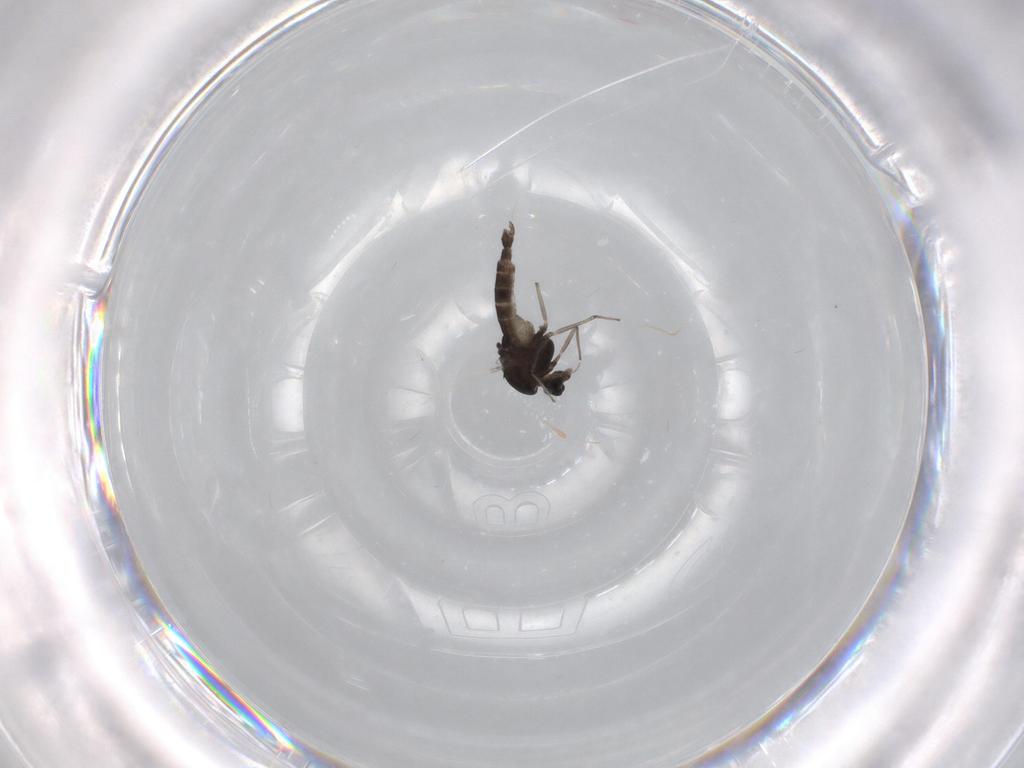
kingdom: Animalia
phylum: Arthropoda
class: Insecta
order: Diptera
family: Chironomidae
